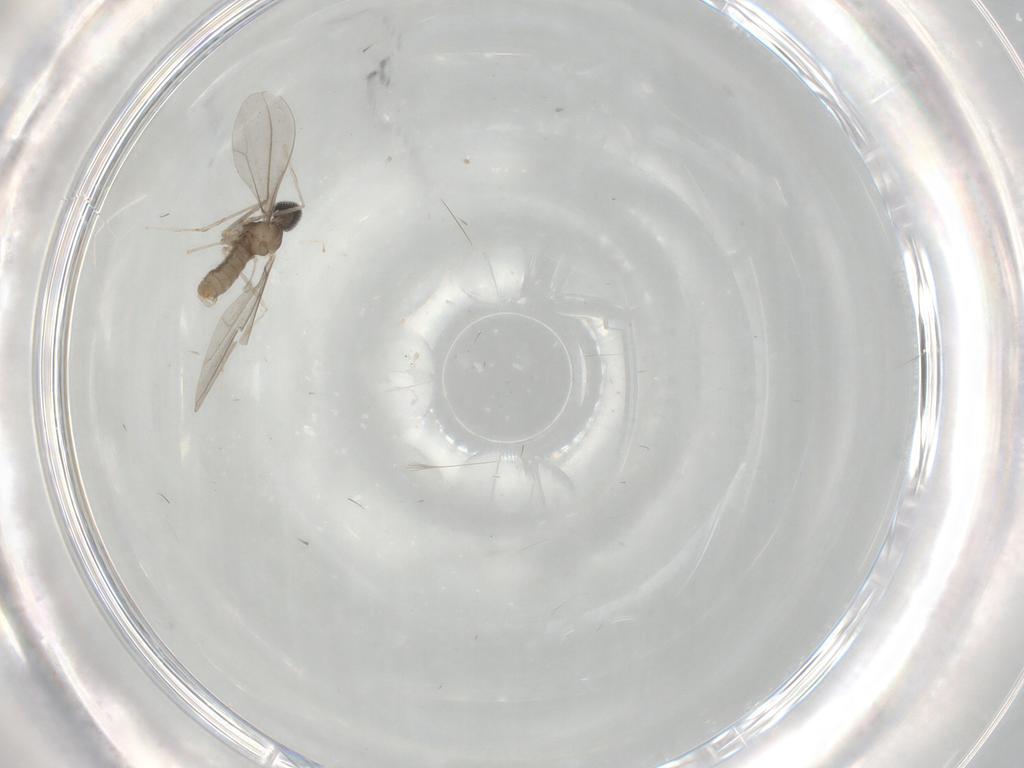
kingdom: Animalia
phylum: Arthropoda
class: Insecta
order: Diptera
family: Cecidomyiidae
